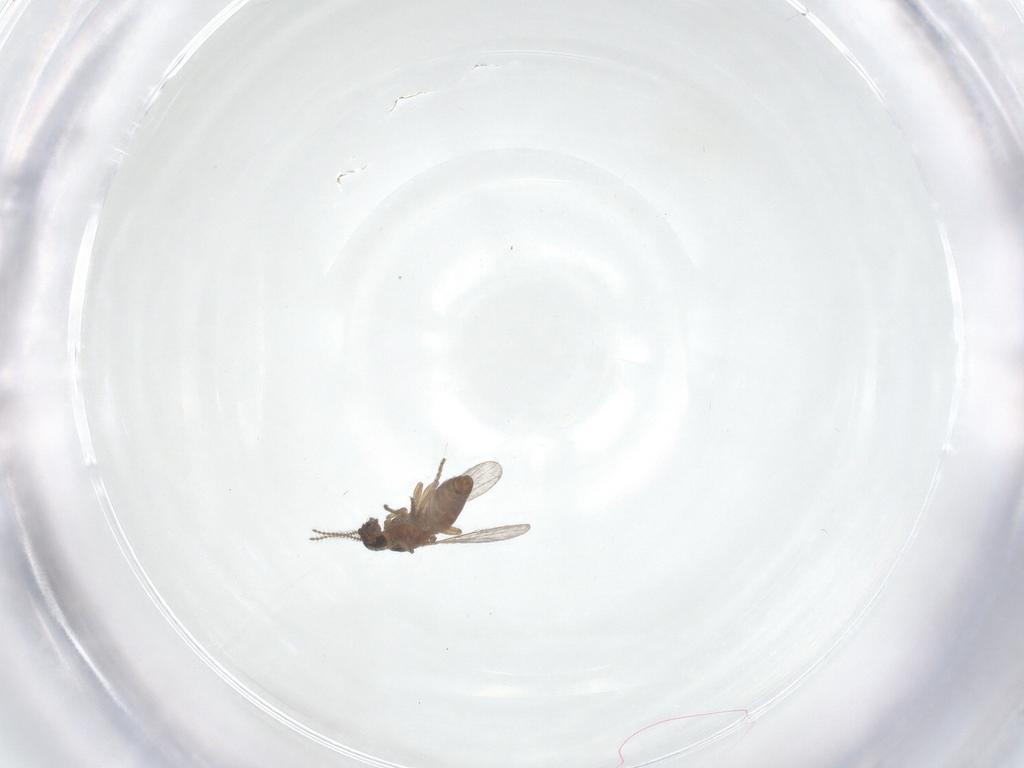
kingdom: Animalia
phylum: Arthropoda
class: Insecta
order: Diptera
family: Ceratopogonidae
